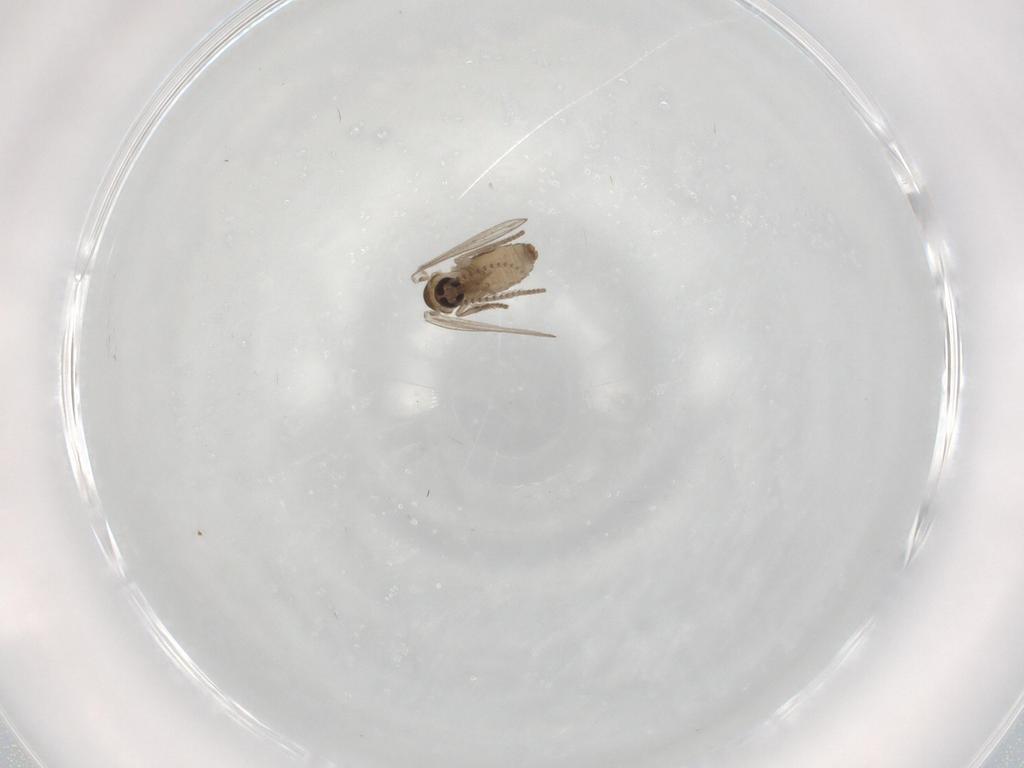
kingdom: Animalia
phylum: Arthropoda
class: Insecta
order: Diptera
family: Psychodidae
